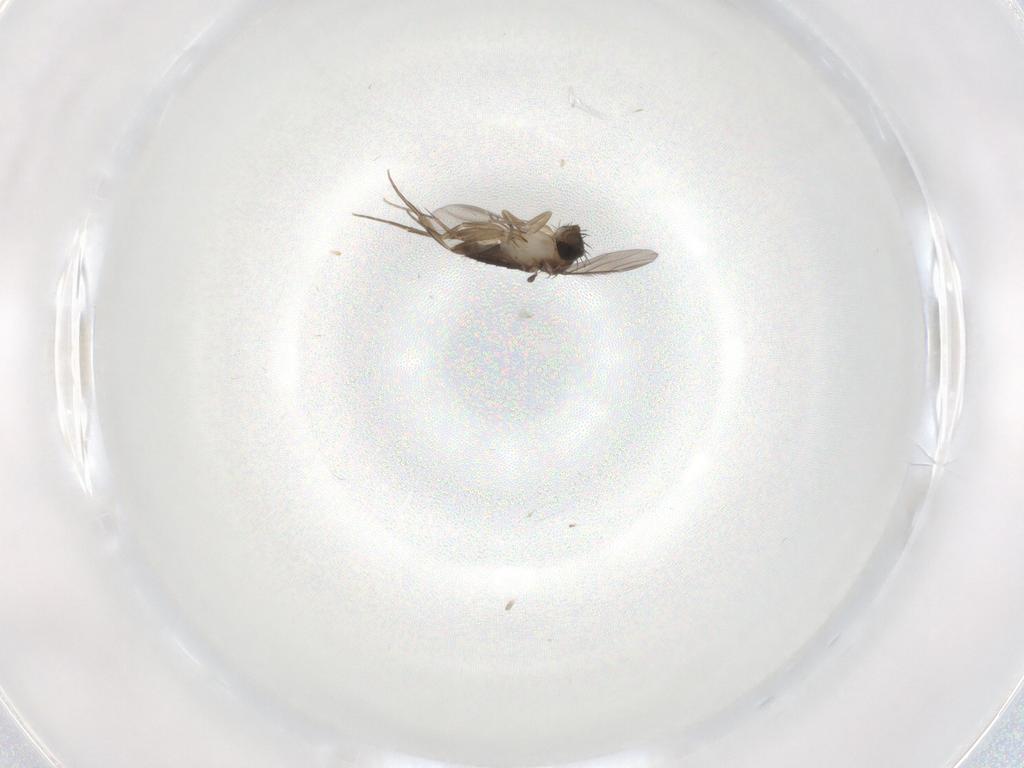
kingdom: Animalia
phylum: Arthropoda
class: Insecta
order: Diptera
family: Phoridae
